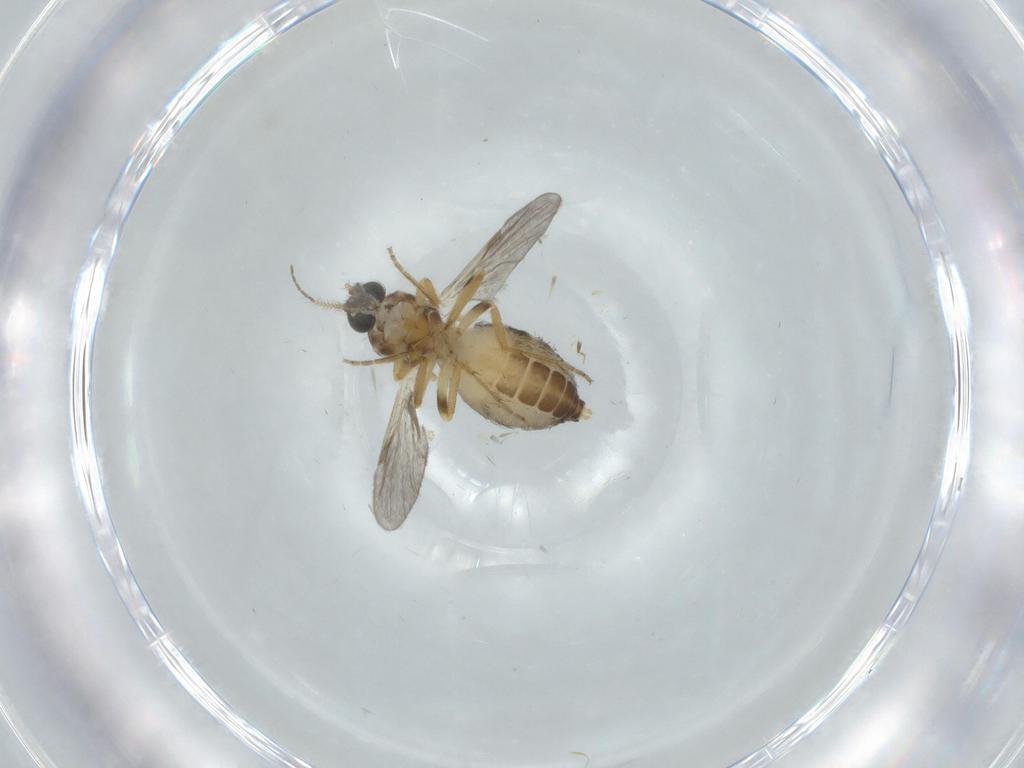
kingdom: Animalia
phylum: Arthropoda
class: Insecta
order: Diptera
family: Ceratopogonidae
